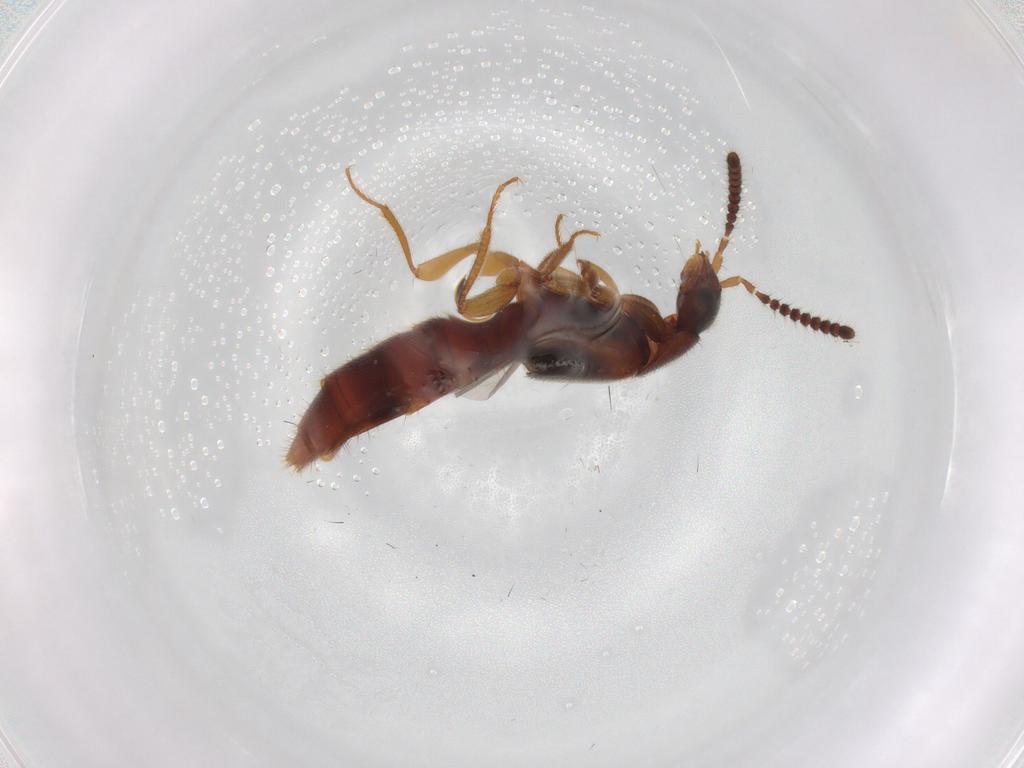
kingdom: Animalia
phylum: Arthropoda
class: Insecta
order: Coleoptera
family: Staphylinidae
